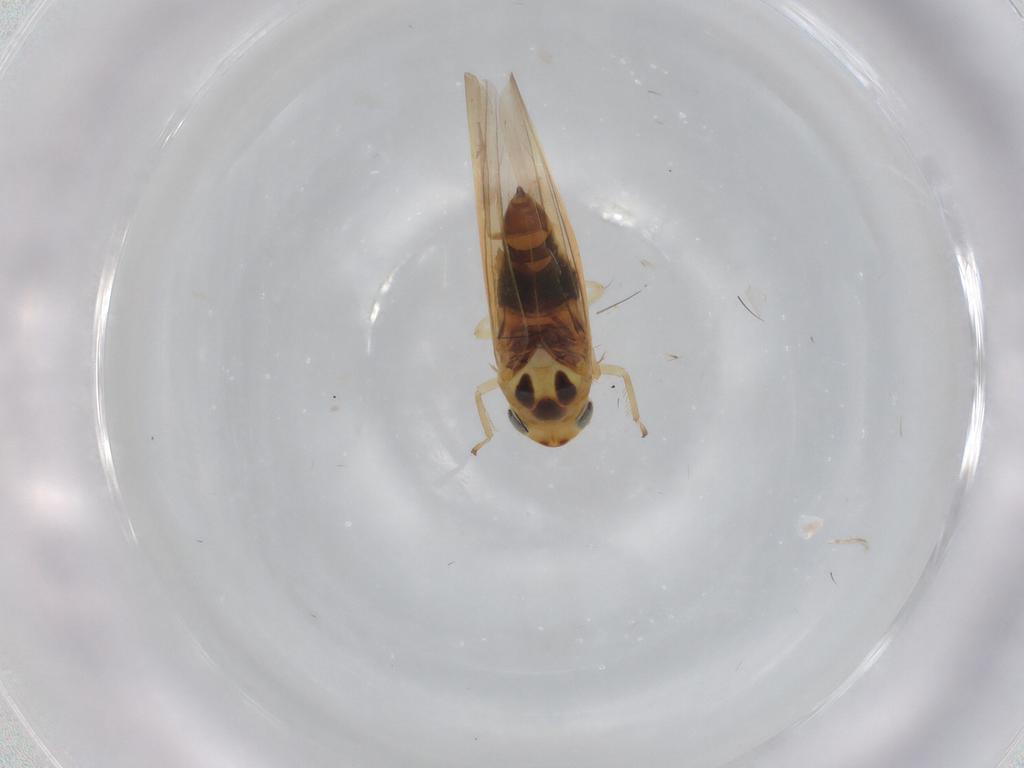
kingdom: Animalia
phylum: Arthropoda
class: Insecta
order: Hemiptera
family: Cicadellidae
